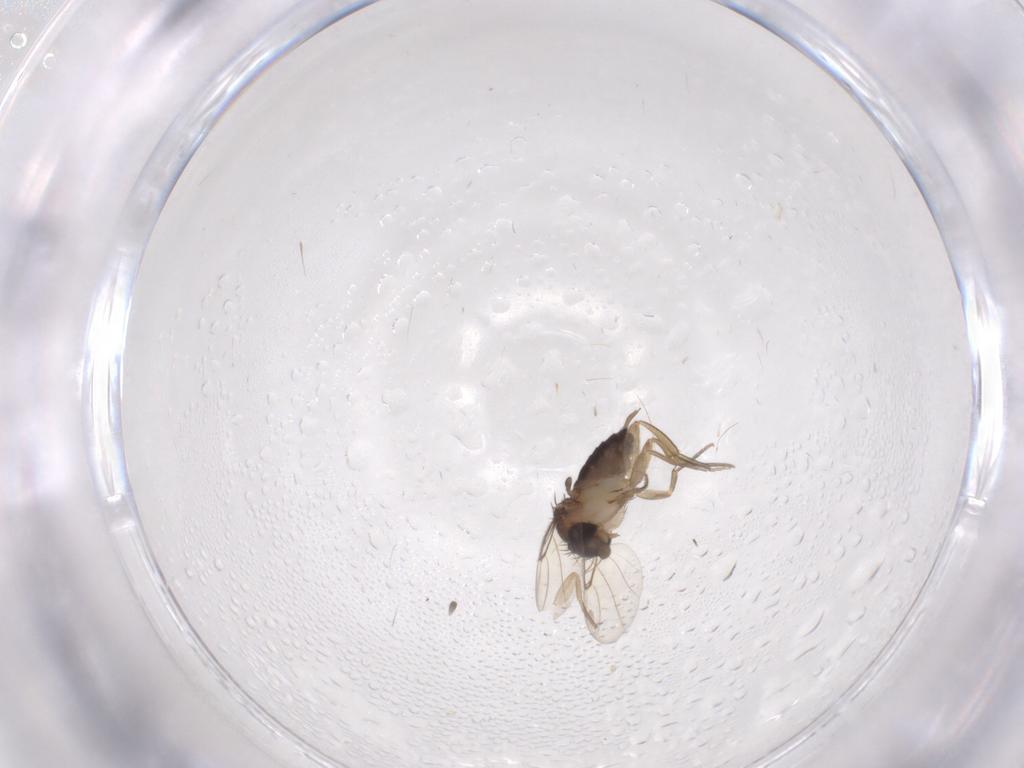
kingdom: Animalia
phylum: Arthropoda
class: Insecta
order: Diptera
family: Sciaridae
